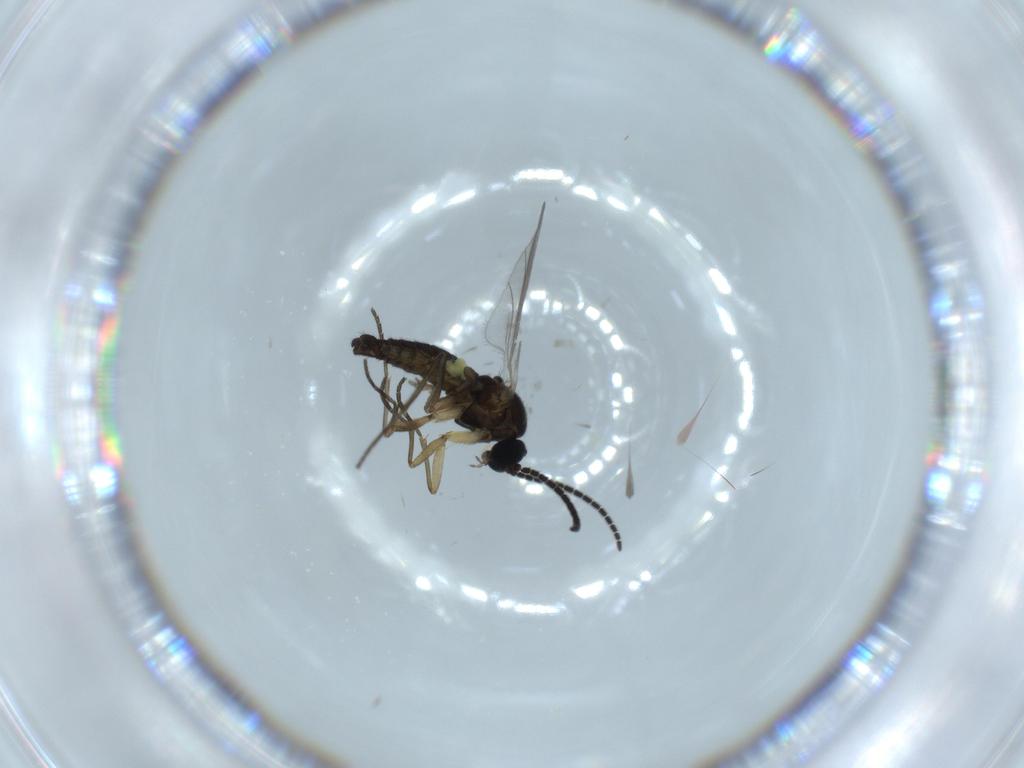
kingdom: Animalia
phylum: Arthropoda
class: Insecta
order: Diptera
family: Sciaridae
